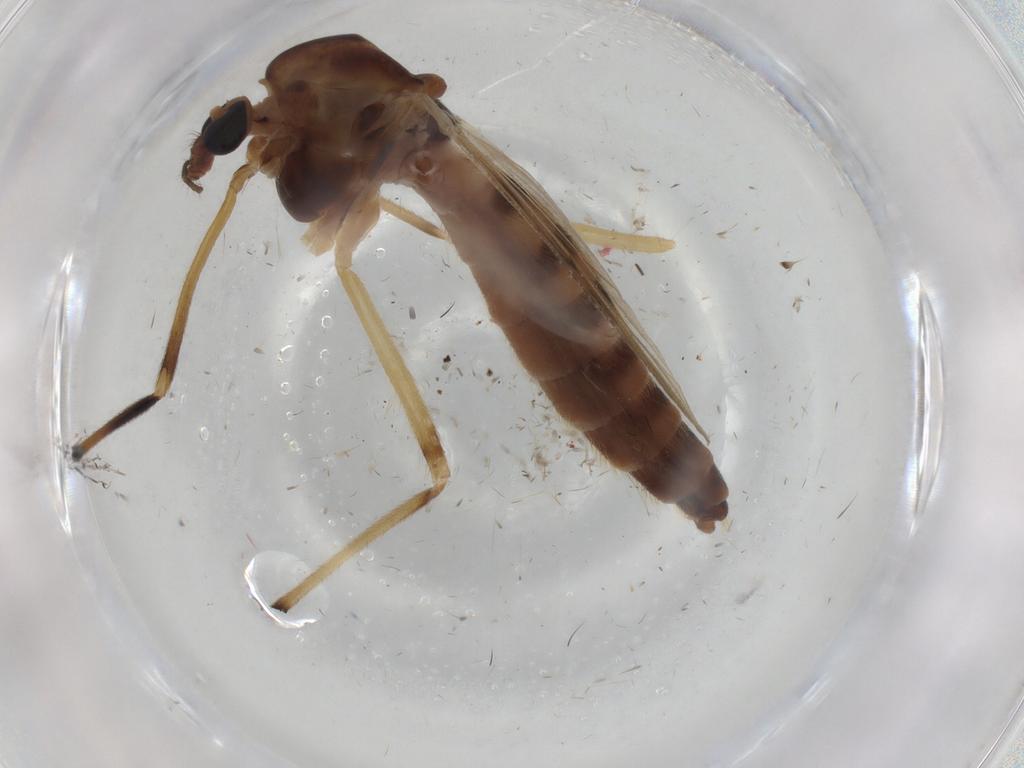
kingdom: Animalia
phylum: Arthropoda
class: Insecta
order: Diptera
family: Chironomidae
